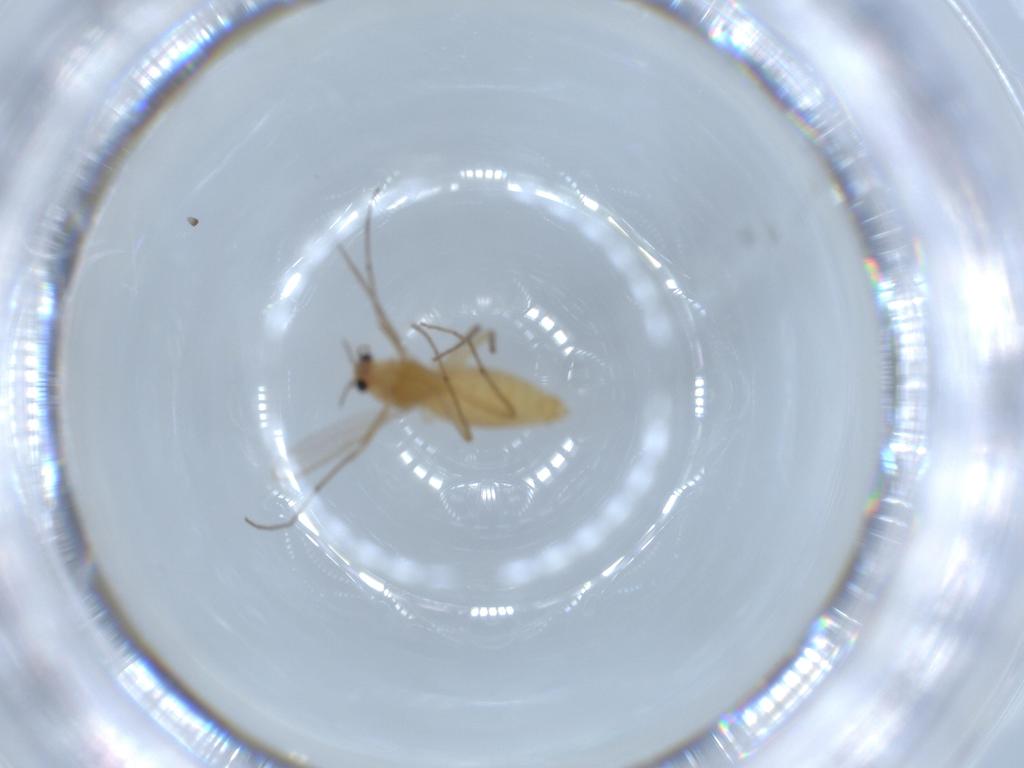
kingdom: Animalia
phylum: Arthropoda
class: Insecta
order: Diptera
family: Chironomidae
